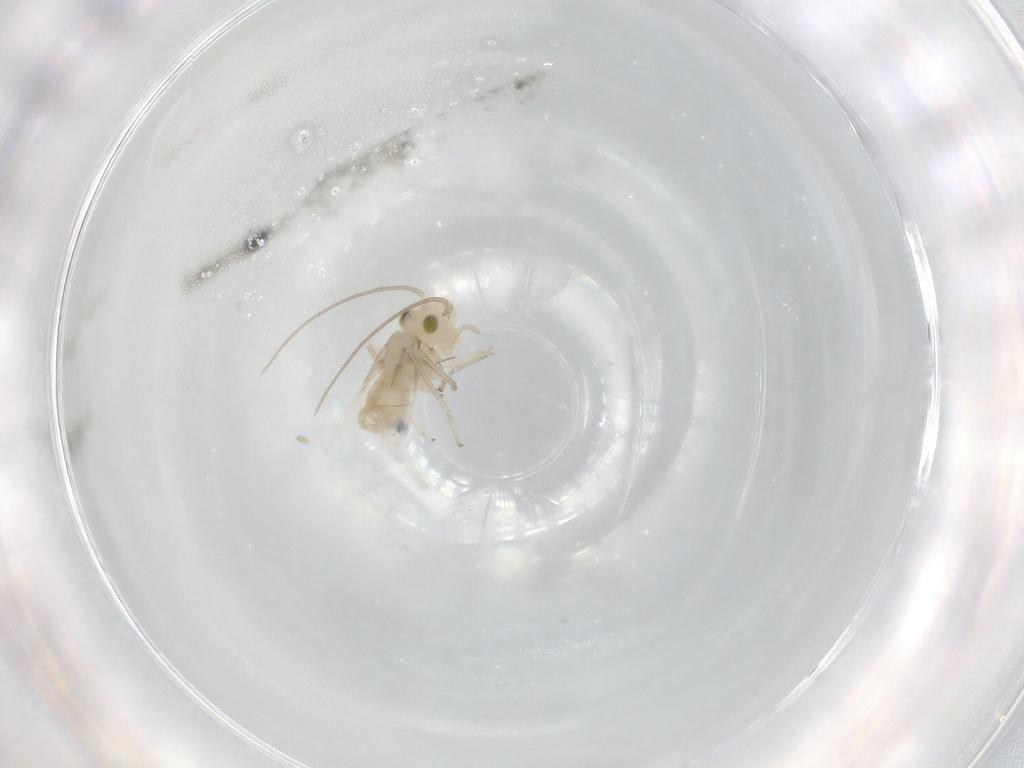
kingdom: Animalia
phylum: Arthropoda
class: Insecta
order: Psocodea
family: Caeciliusidae
